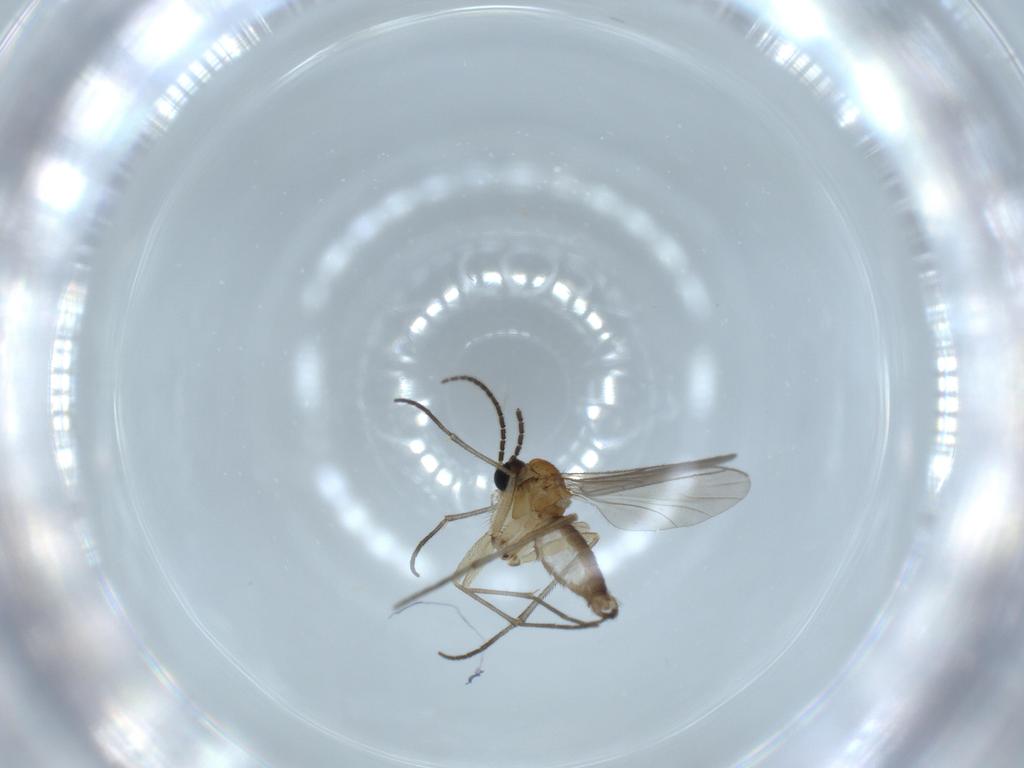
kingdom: Animalia
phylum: Arthropoda
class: Insecta
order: Diptera
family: Sciaridae
